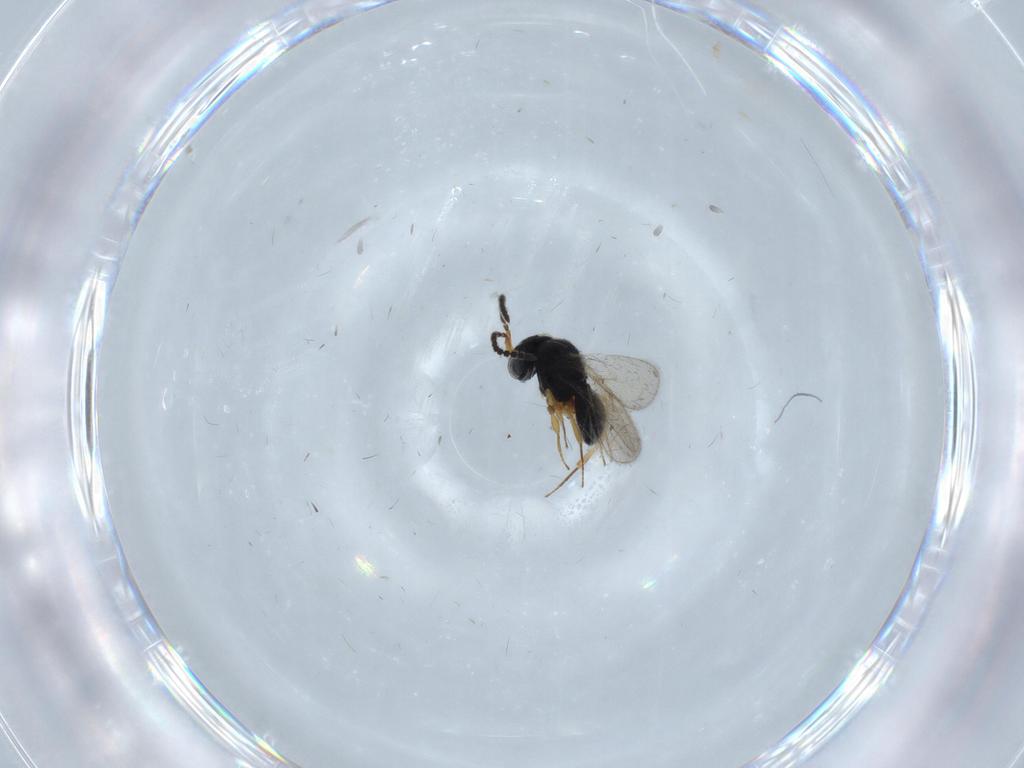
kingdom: Animalia
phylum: Arthropoda
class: Insecta
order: Hymenoptera
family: Scelionidae
